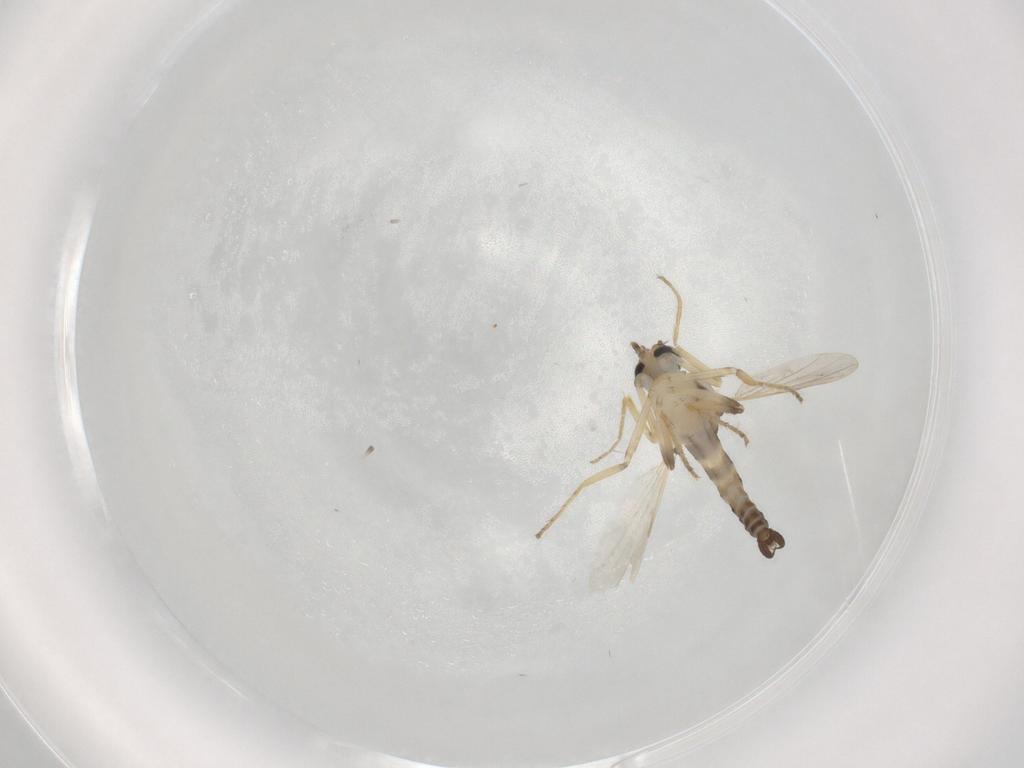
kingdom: Animalia
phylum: Arthropoda
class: Insecta
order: Diptera
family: Ceratopogonidae
